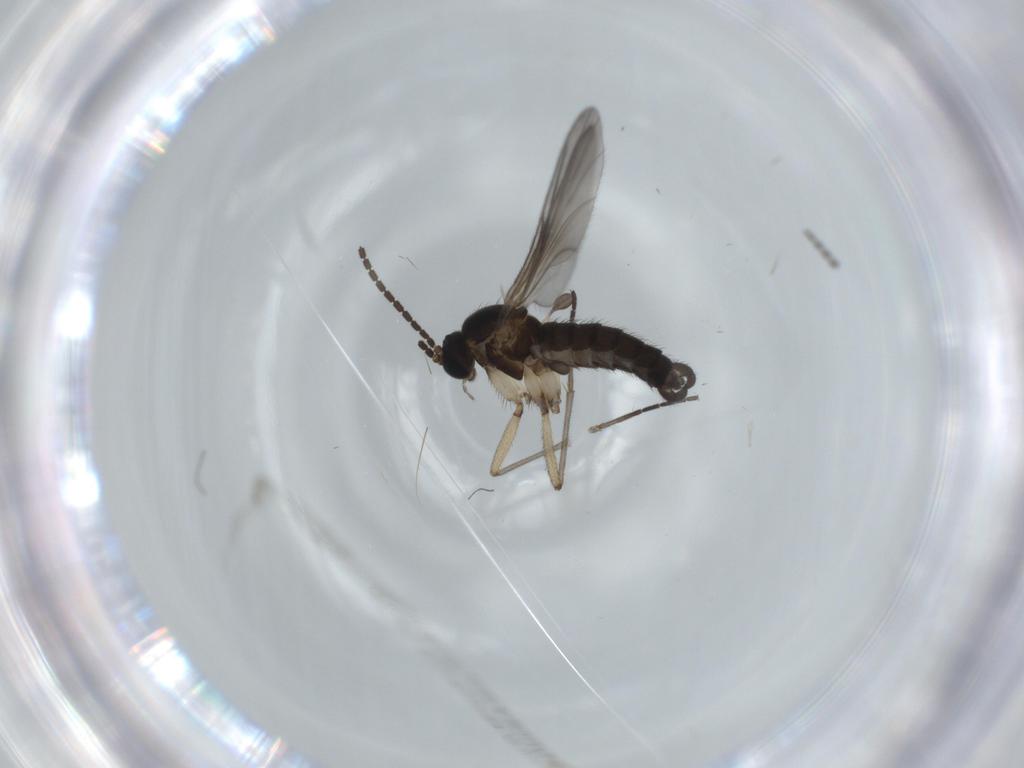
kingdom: Animalia
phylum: Arthropoda
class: Insecta
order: Diptera
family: Sciaridae
